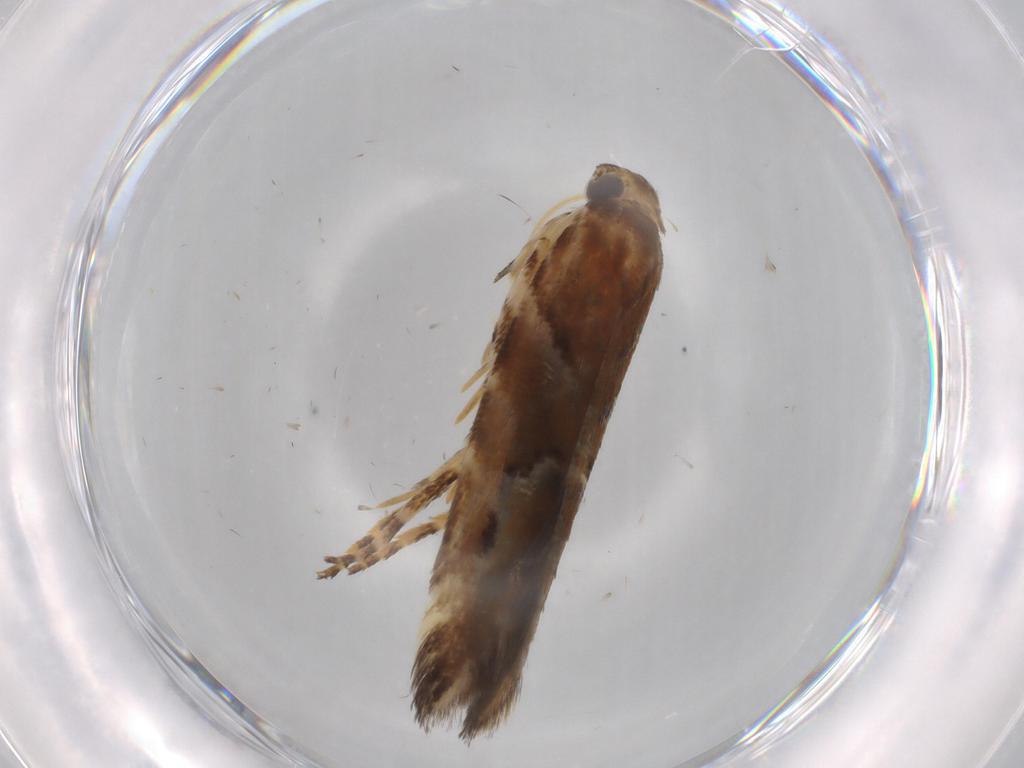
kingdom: Animalia
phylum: Arthropoda
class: Insecta
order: Lepidoptera
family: Gelechiidae
